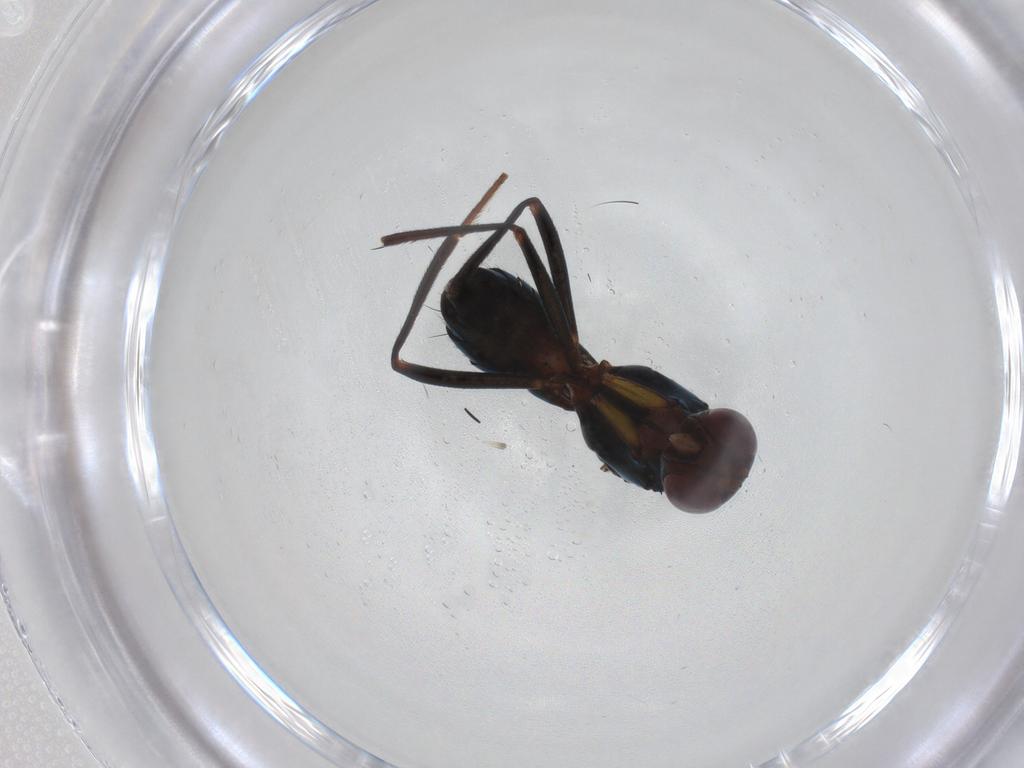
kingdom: Animalia
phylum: Arthropoda
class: Insecta
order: Diptera
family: Chironomidae
